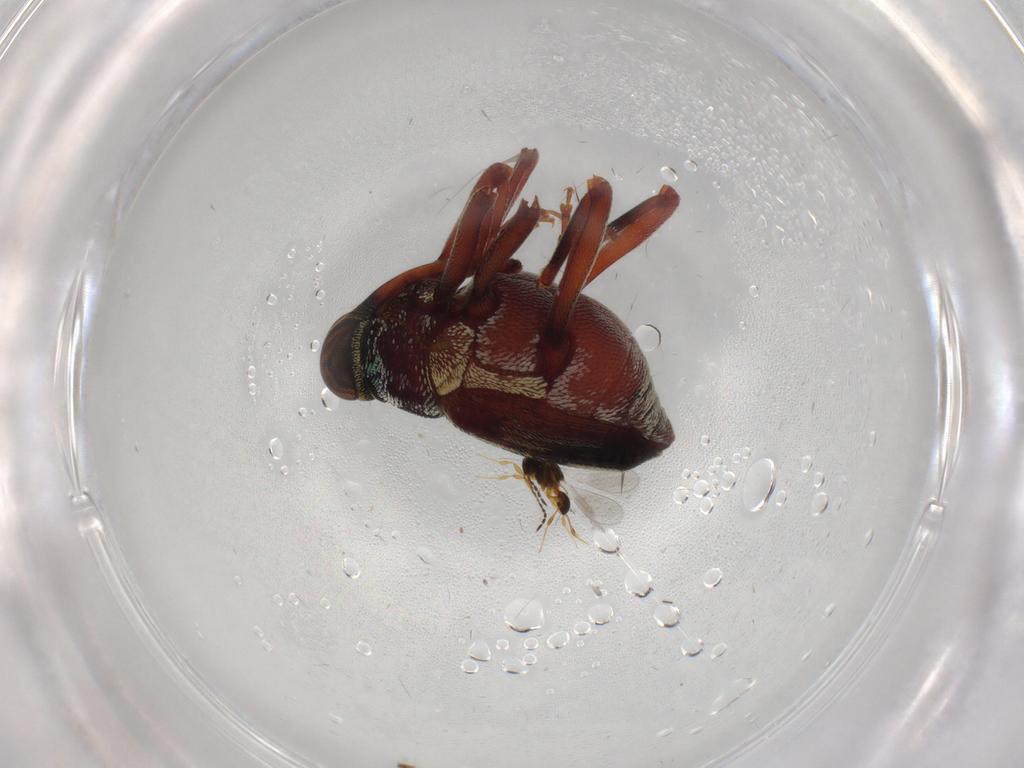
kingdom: Animalia
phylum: Arthropoda
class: Insecta
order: Coleoptera
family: Curculionidae
